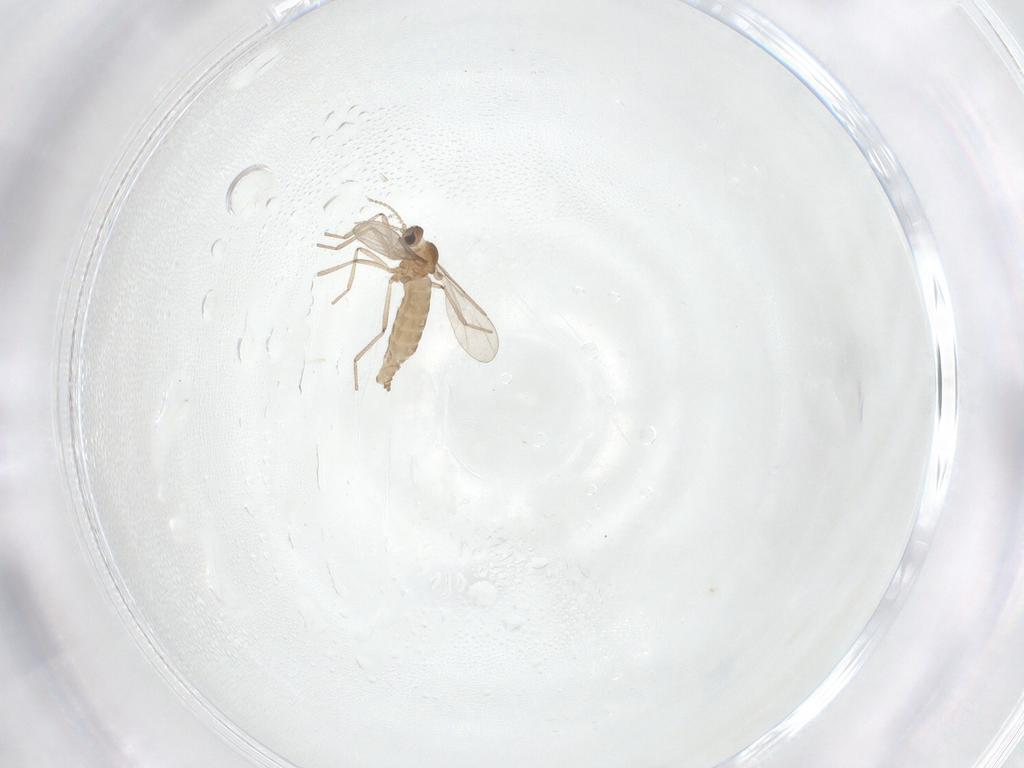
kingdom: Animalia
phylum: Arthropoda
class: Insecta
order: Diptera
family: Cecidomyiidae
